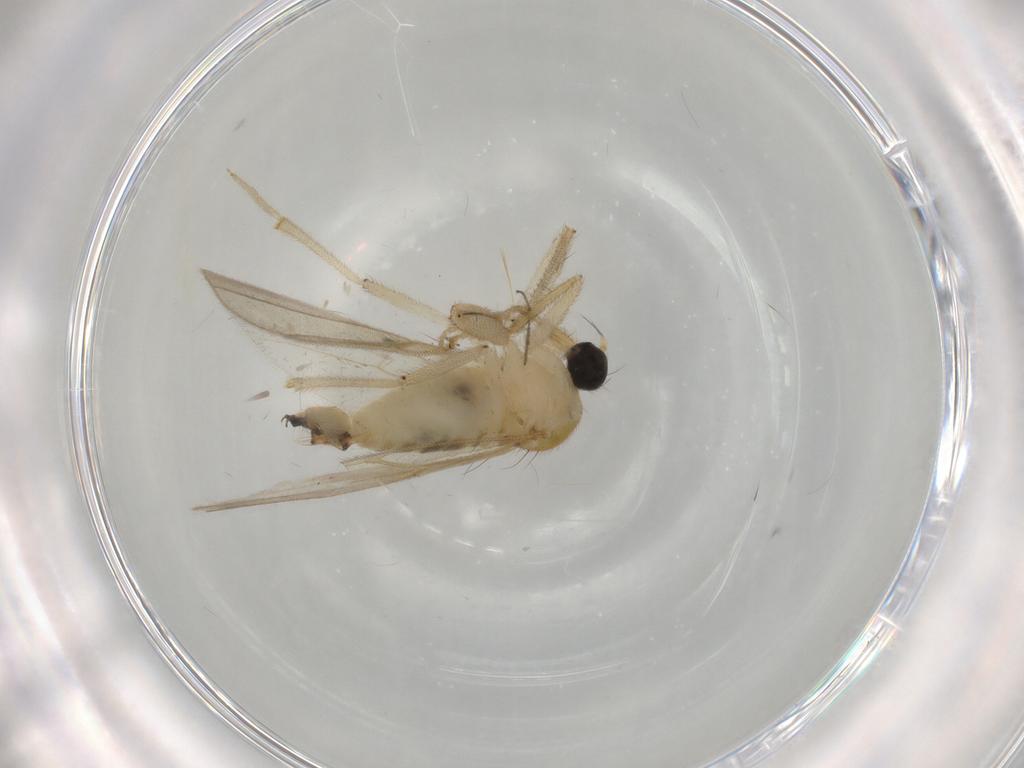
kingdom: Animalia
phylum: Arthropoda
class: Insecta
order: Diptera
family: Hybotidae
